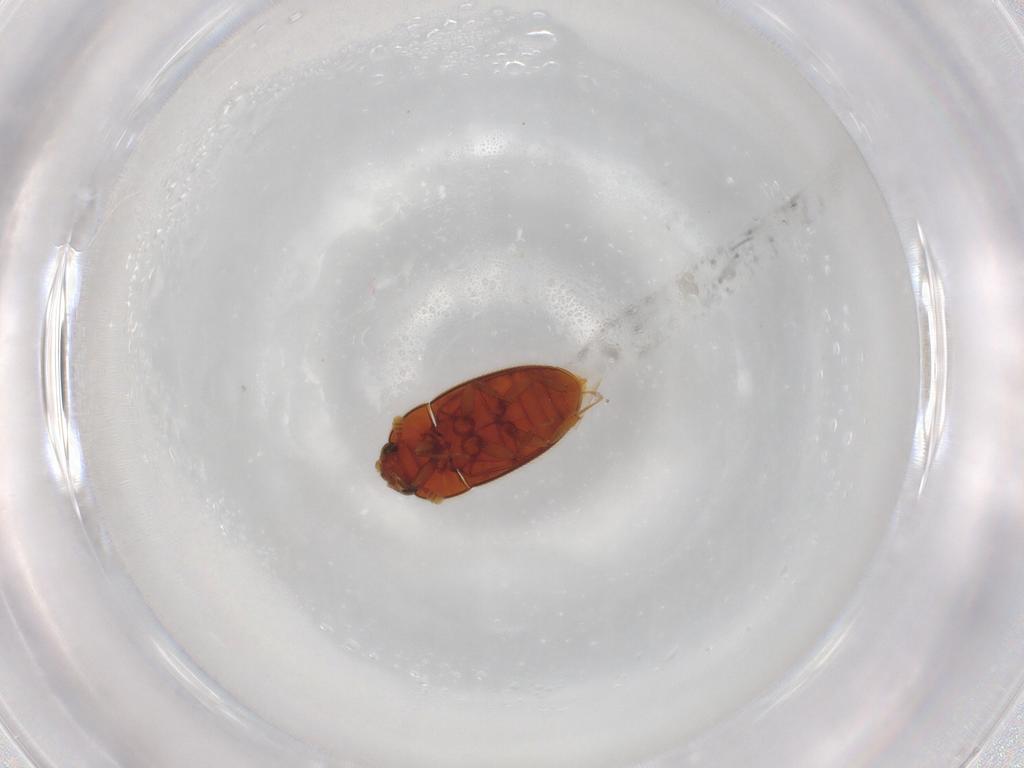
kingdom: Animalia
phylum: Arthropoda
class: Insecta
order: Coleoptera
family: Biphyllidae
